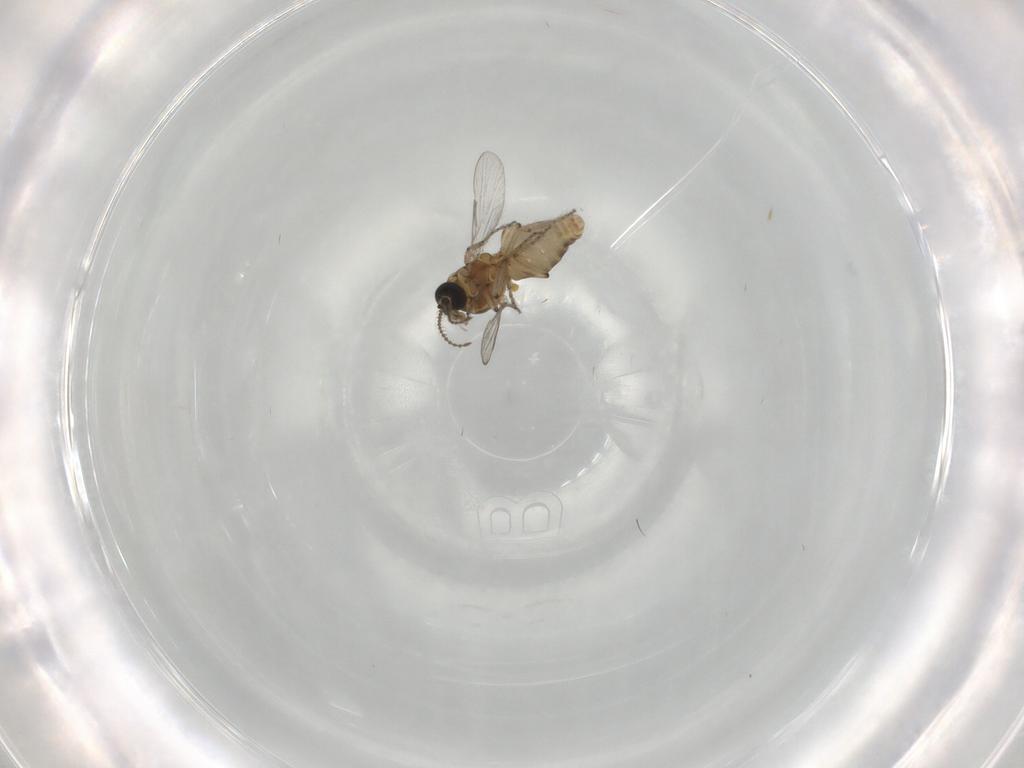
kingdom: Animalia
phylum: Arthropoda
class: Insecta
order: Diptera
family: Ceratopogonidae
